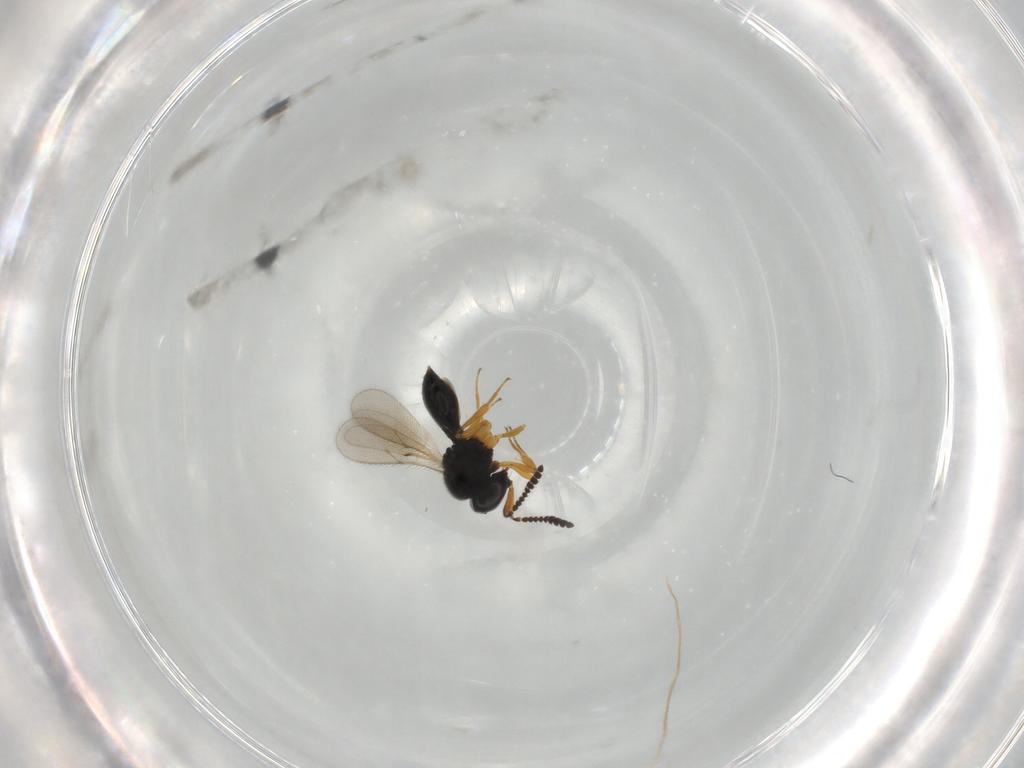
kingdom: Animalia
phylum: Arthropoda
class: Insecta
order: Hymenoptera
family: Scelionidae
